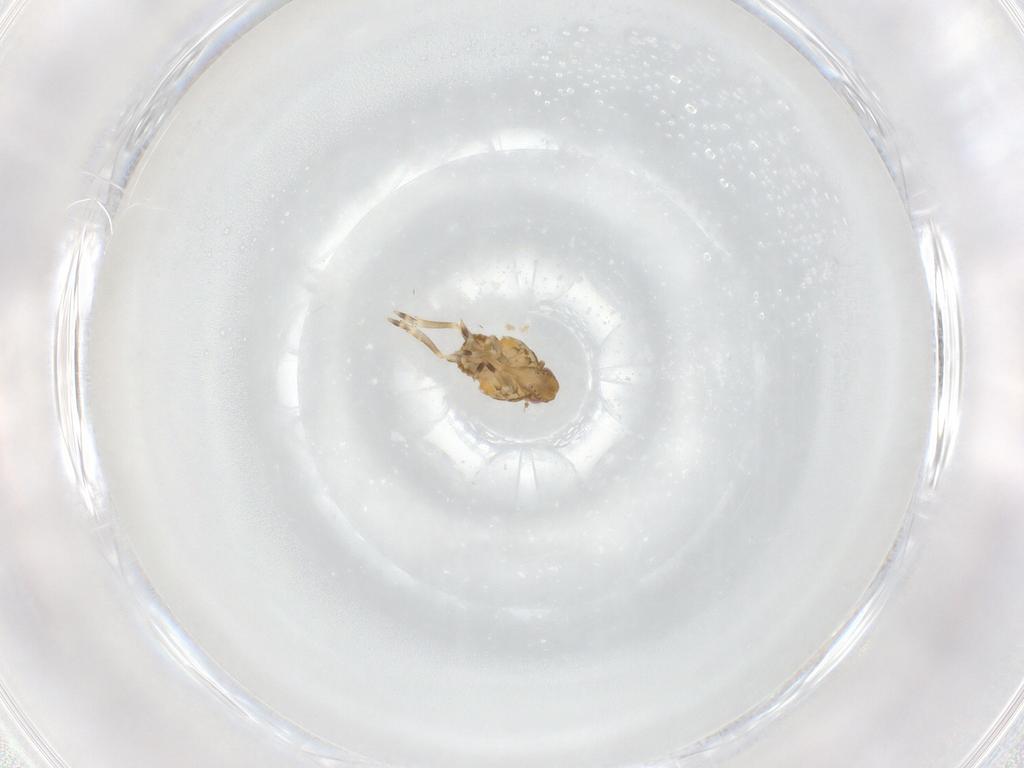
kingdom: Animalia
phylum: Arthropoda
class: Insecta
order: Hemiptera
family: Flatidae
